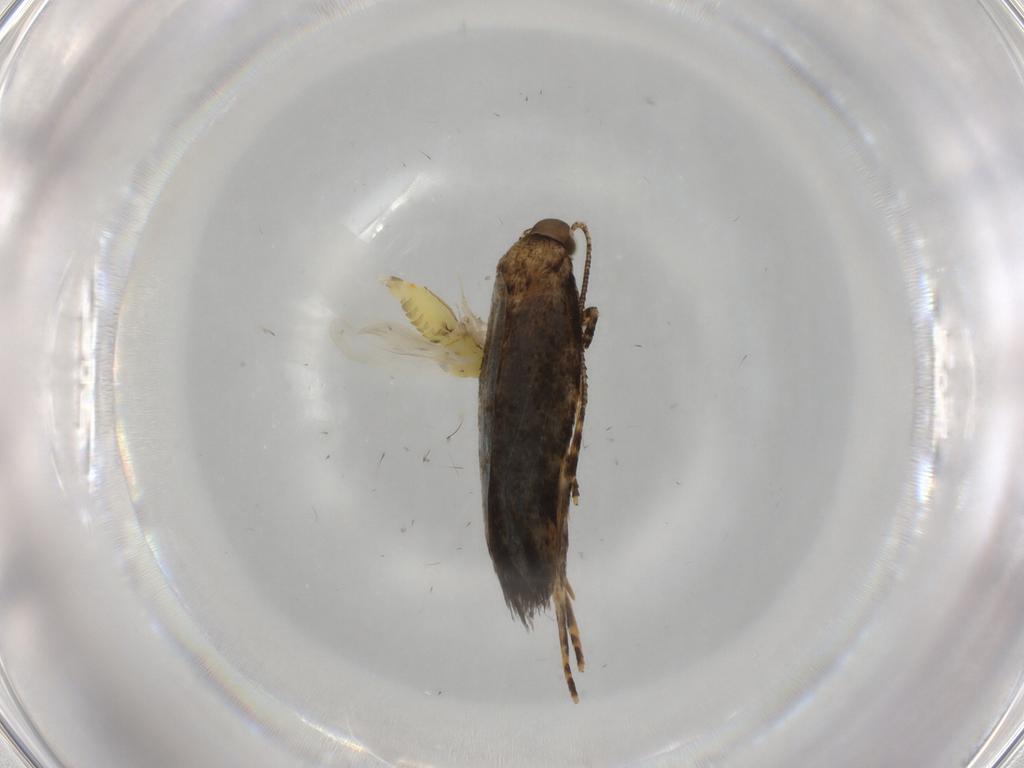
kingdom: Animalia
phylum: Arthropoda
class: Insecta
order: Lepidoptera
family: Oecophoridae
